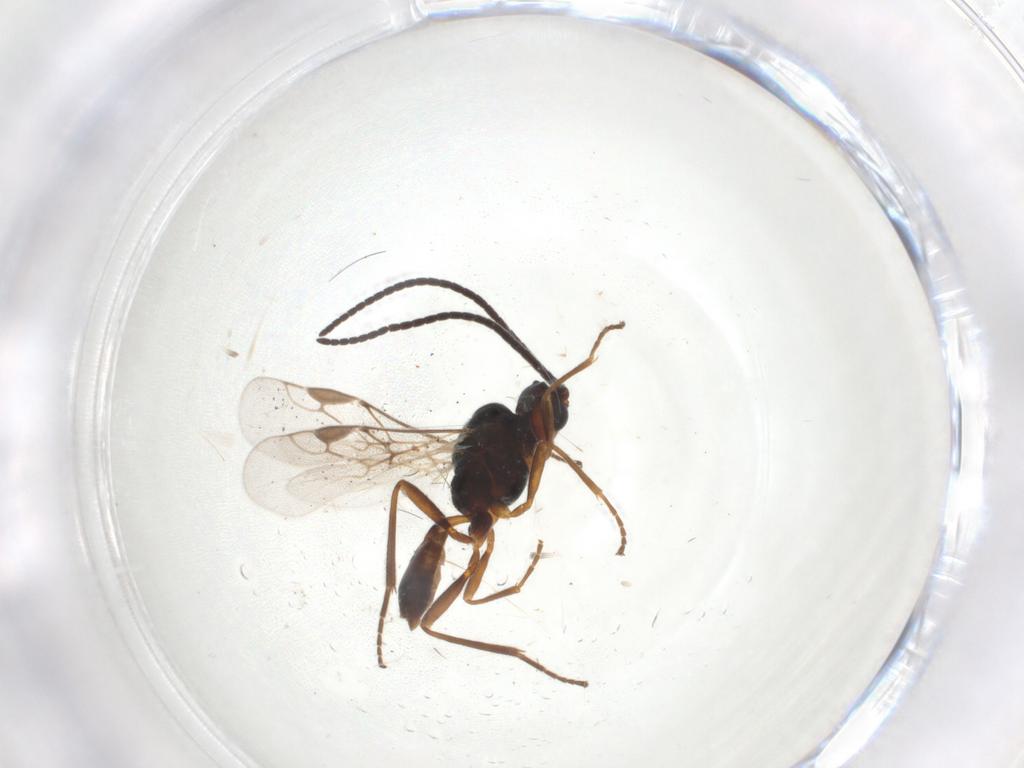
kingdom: Animalia
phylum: Arthropoda
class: Insecta
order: Hymenoptera
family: Braconidae
